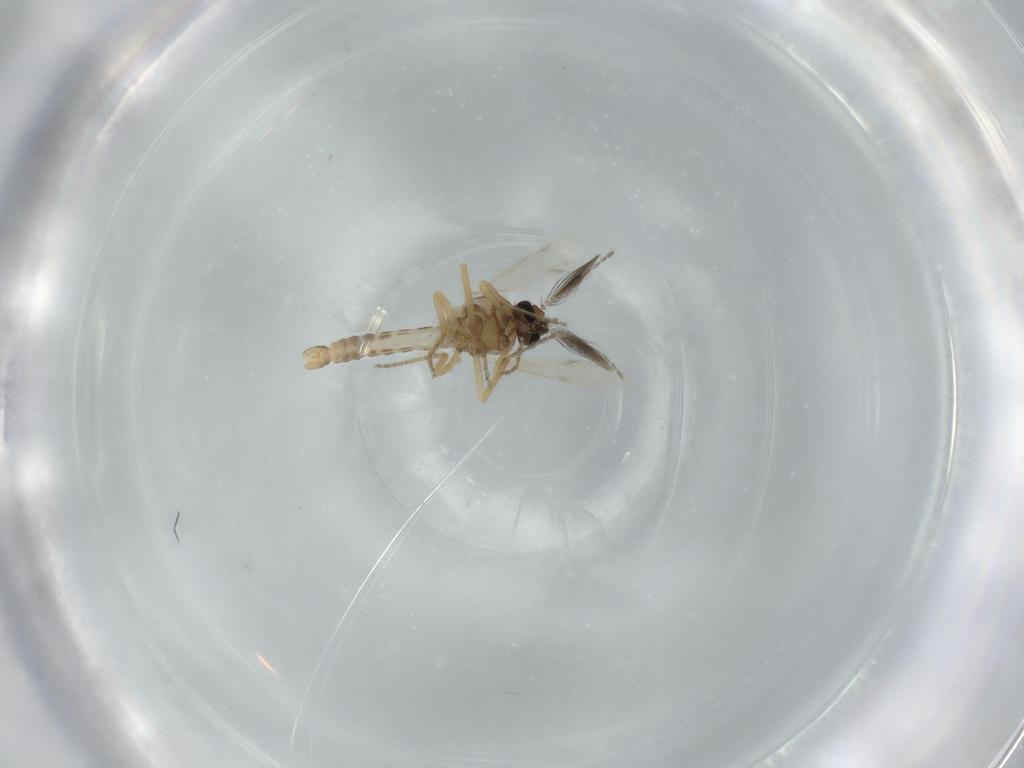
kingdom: Animalia
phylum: Arthropoda
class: Insecta
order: Diptera
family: Ceratopogonidae
